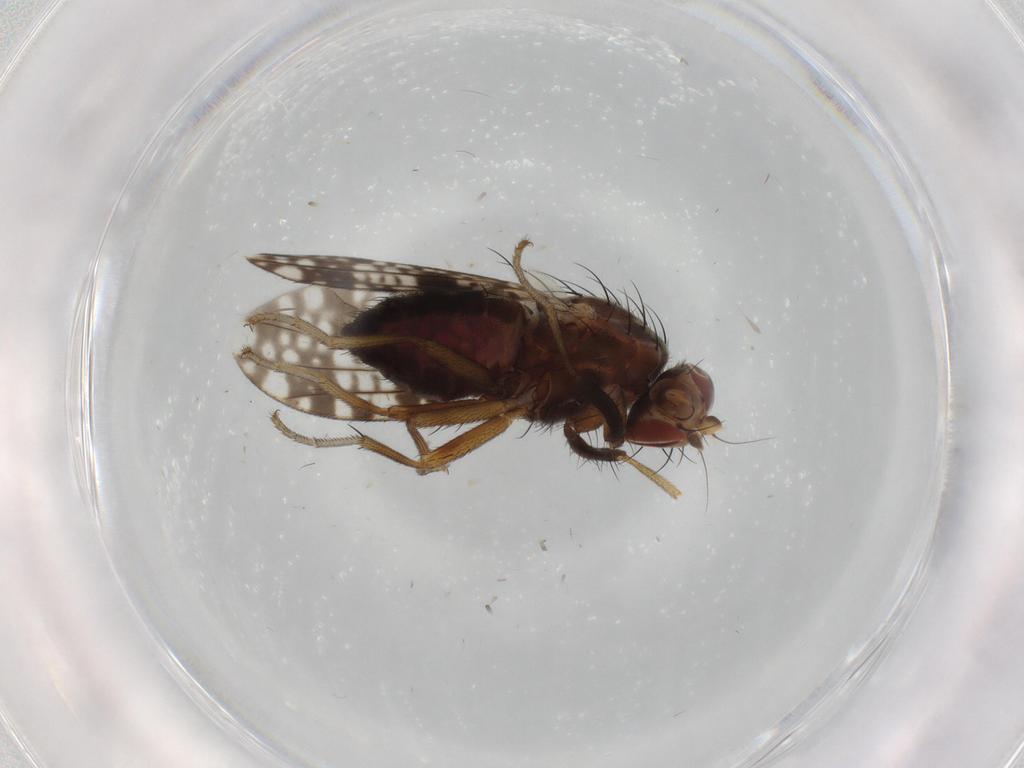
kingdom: Animalia
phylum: Arthropoda
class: Insecta
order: Diptera
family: Tephritidae
